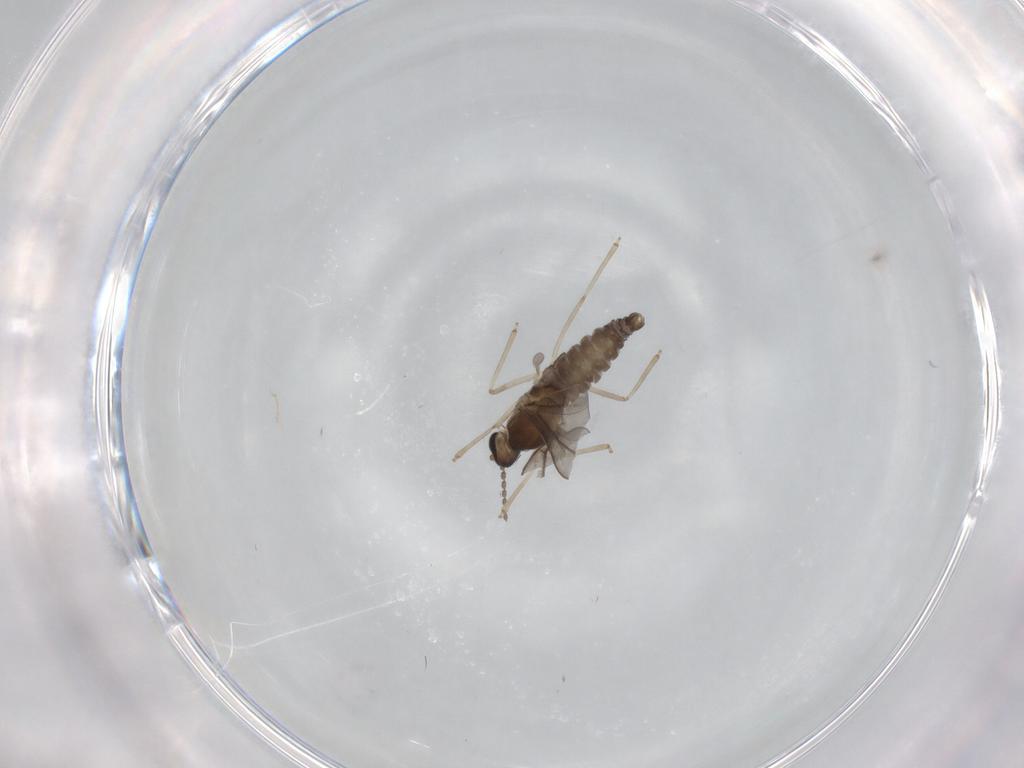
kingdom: Animalia
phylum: Arthropoda
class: Insecta
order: Diptera
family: Cecidomyiidae
